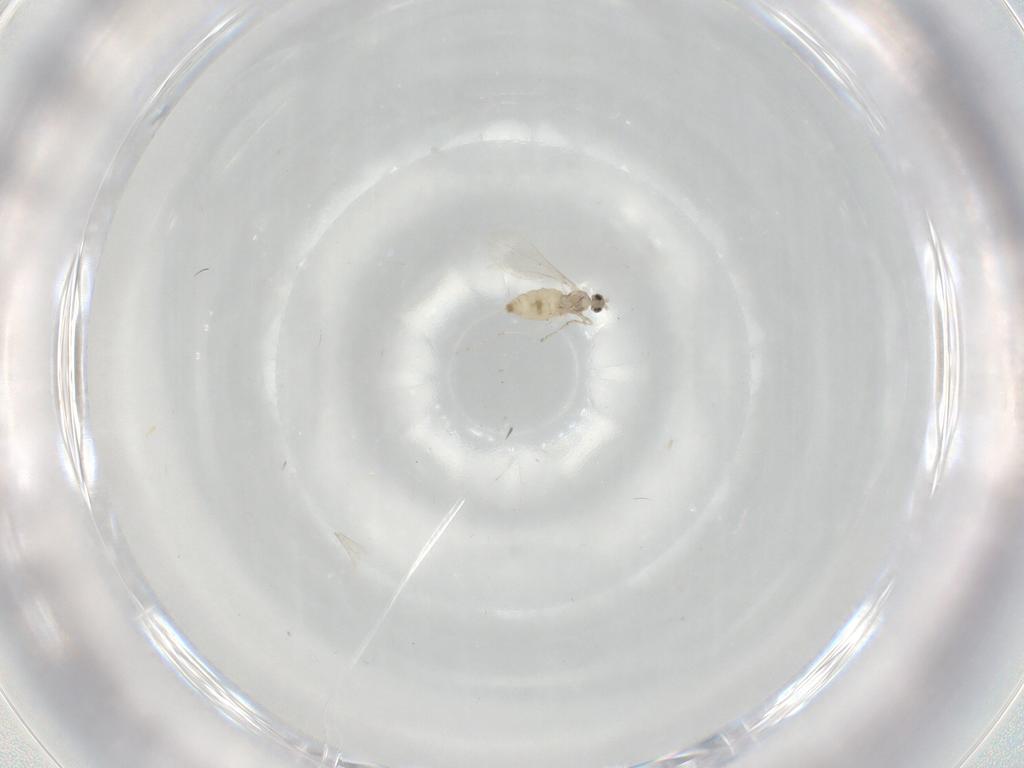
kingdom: Animalia
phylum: Arthropoda
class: Insecta
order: Diptera
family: Cecidomyiidae
